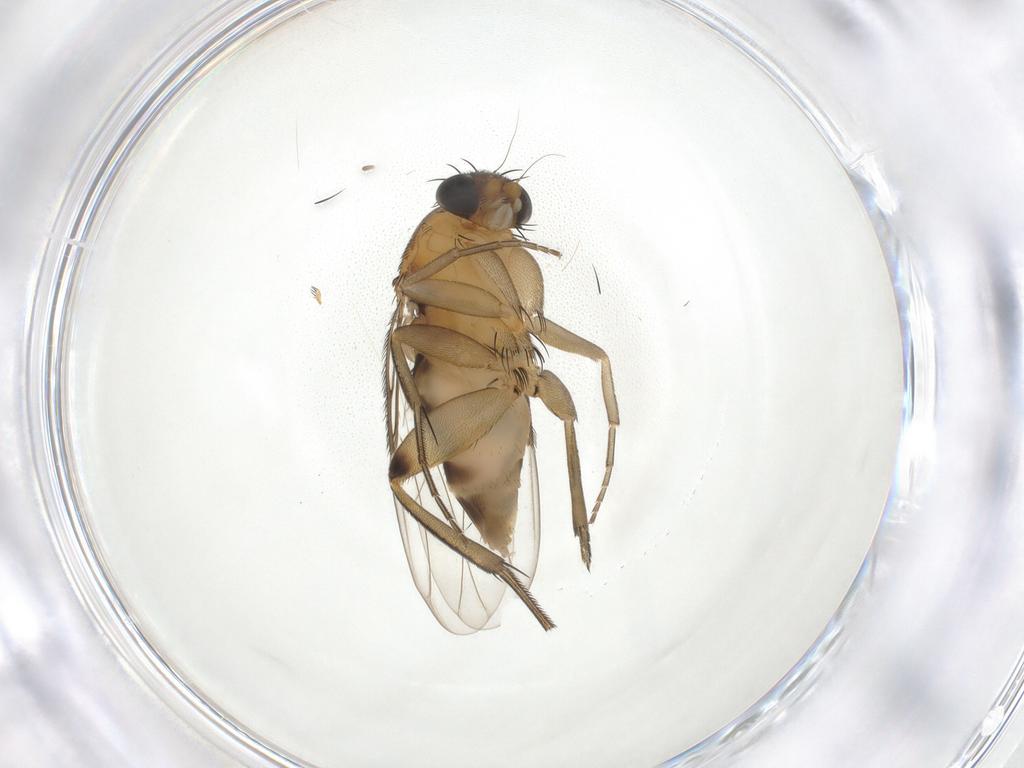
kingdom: Animalia
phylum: Arthropoda
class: Insecta
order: Diptera
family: Phoridae
